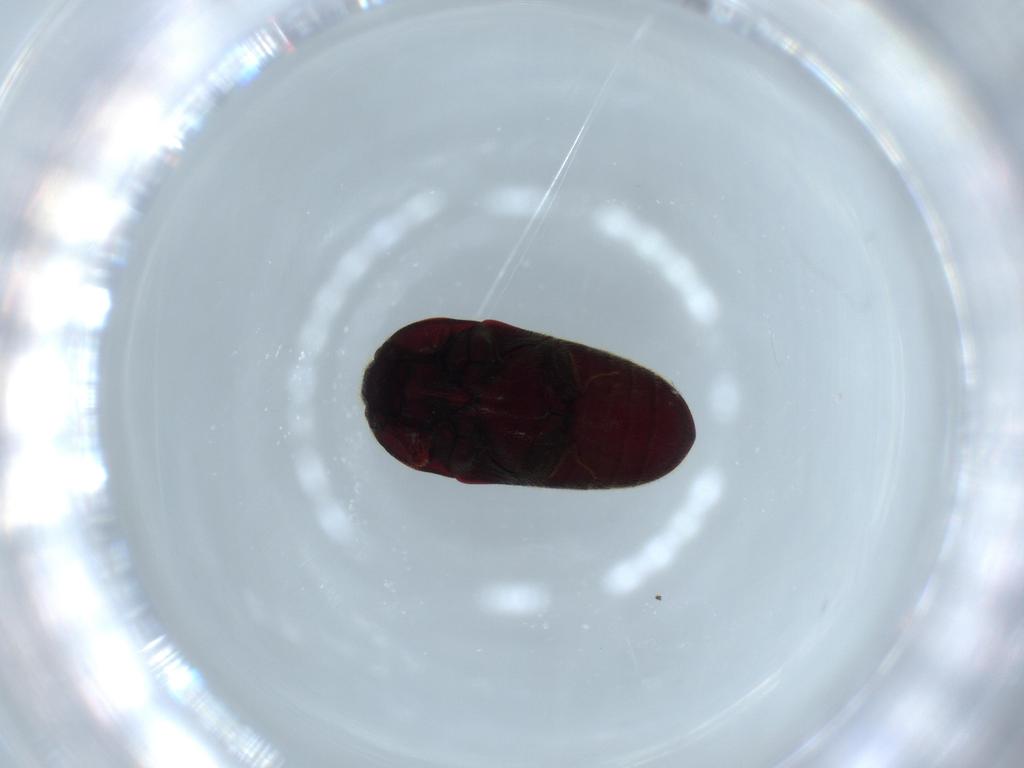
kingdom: Animalia
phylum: Arthropoda
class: Insecta
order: Coleoptera
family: Throscidae
